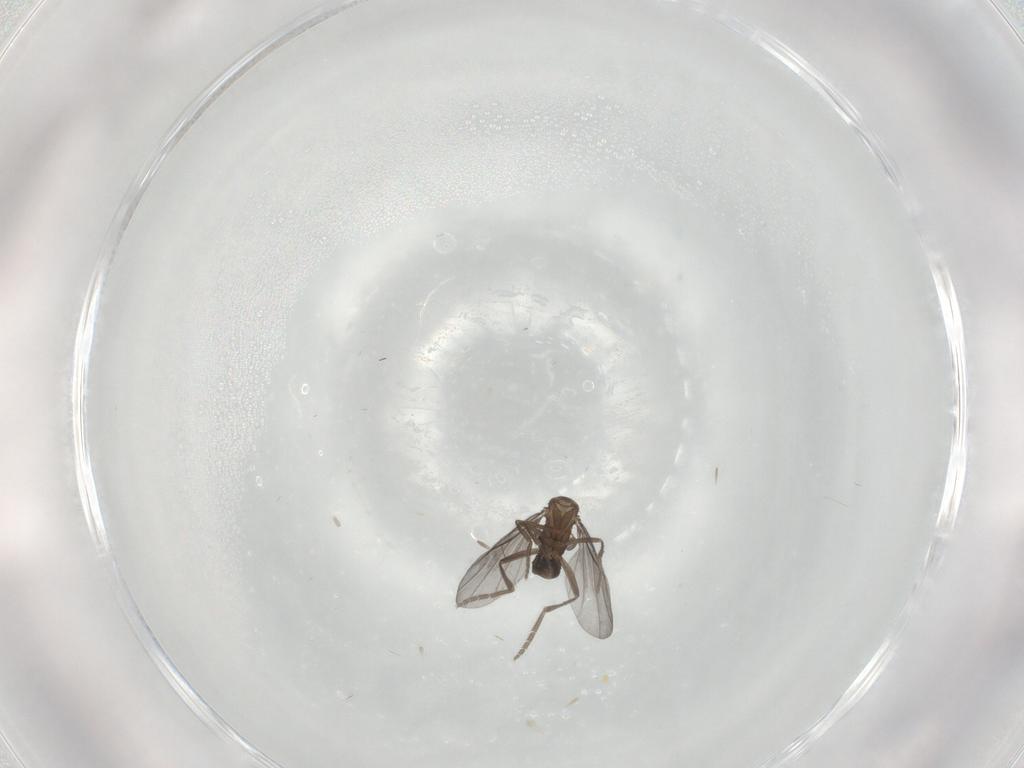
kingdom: Animalia
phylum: Arthropoda
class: Insecta
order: Diptera
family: Phoridae
